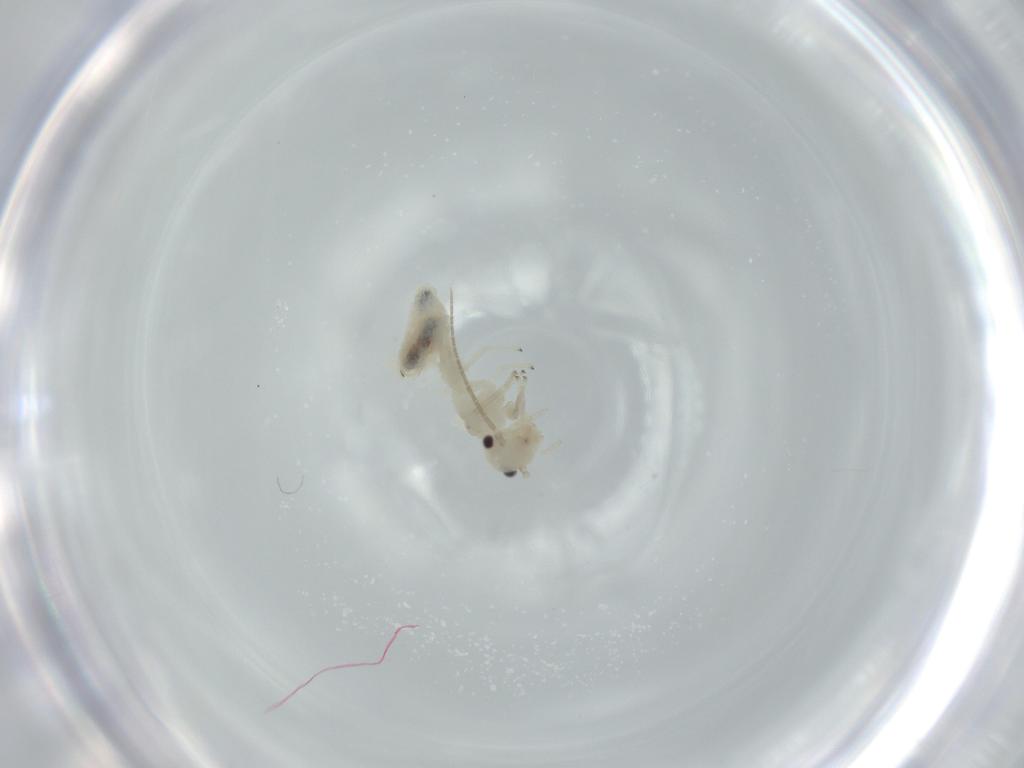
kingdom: Animalia
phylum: Arthropoda
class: Insecta
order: Psocodea
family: Caeciliusidae
